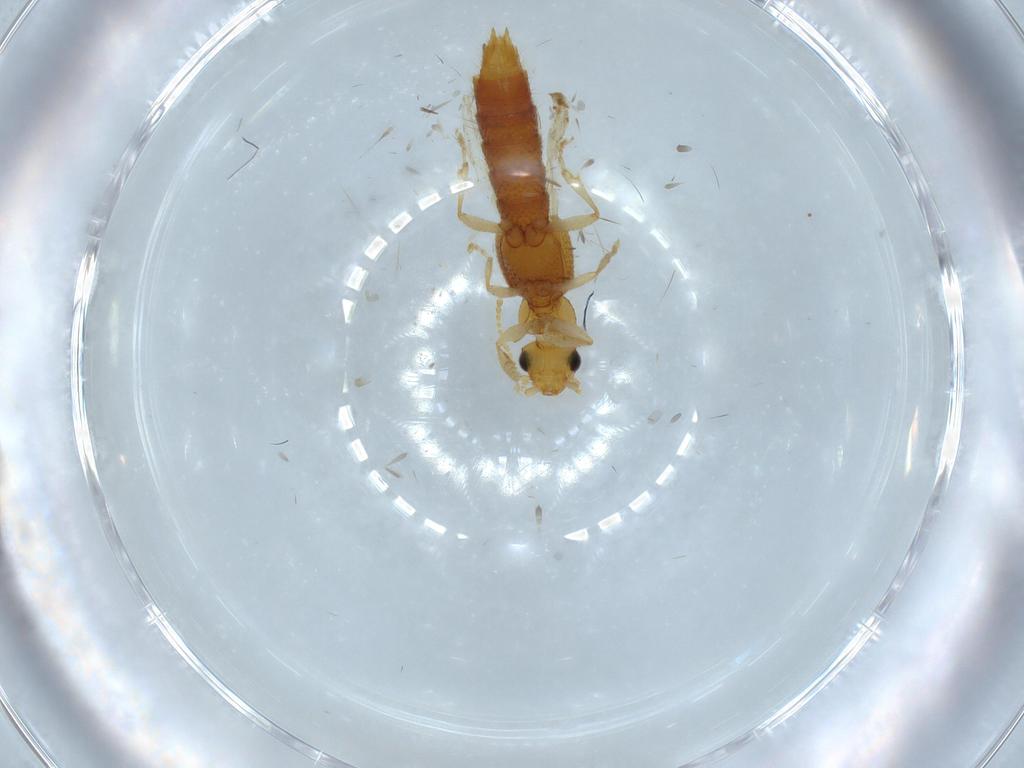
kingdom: Animalia
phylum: Arthropoda
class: Insecta
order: Coleoptera
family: Staphylinidae
